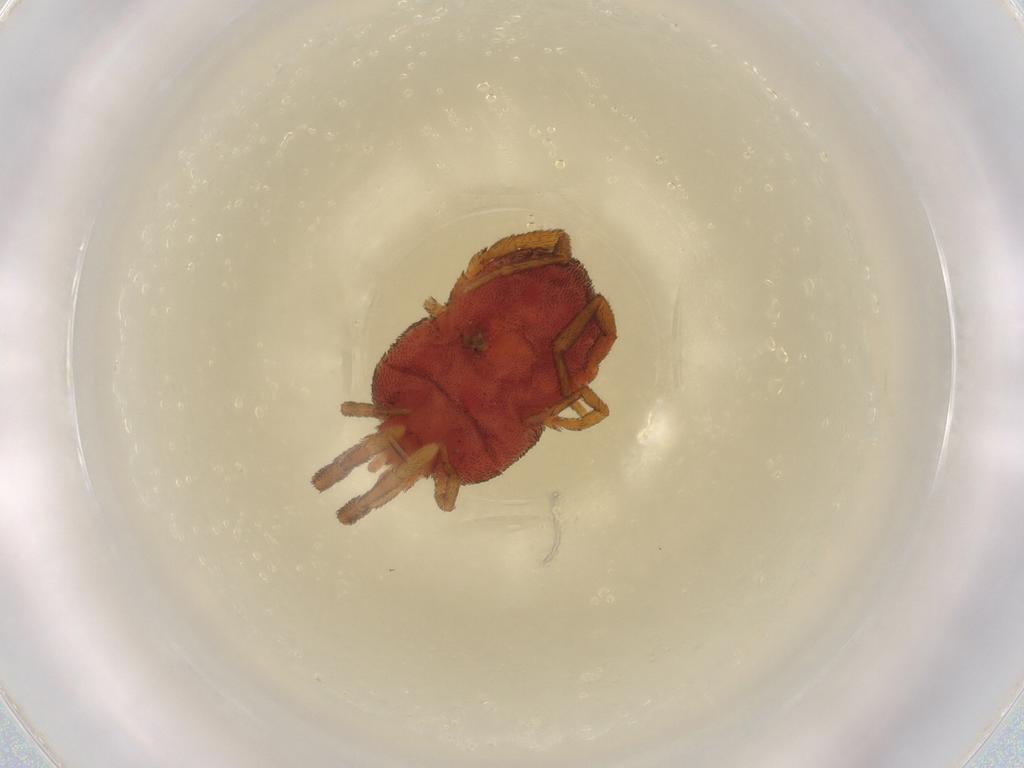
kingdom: Animalia
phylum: Arthropoda
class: Arachnida
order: Trombidiformes
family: Erythraeidae
